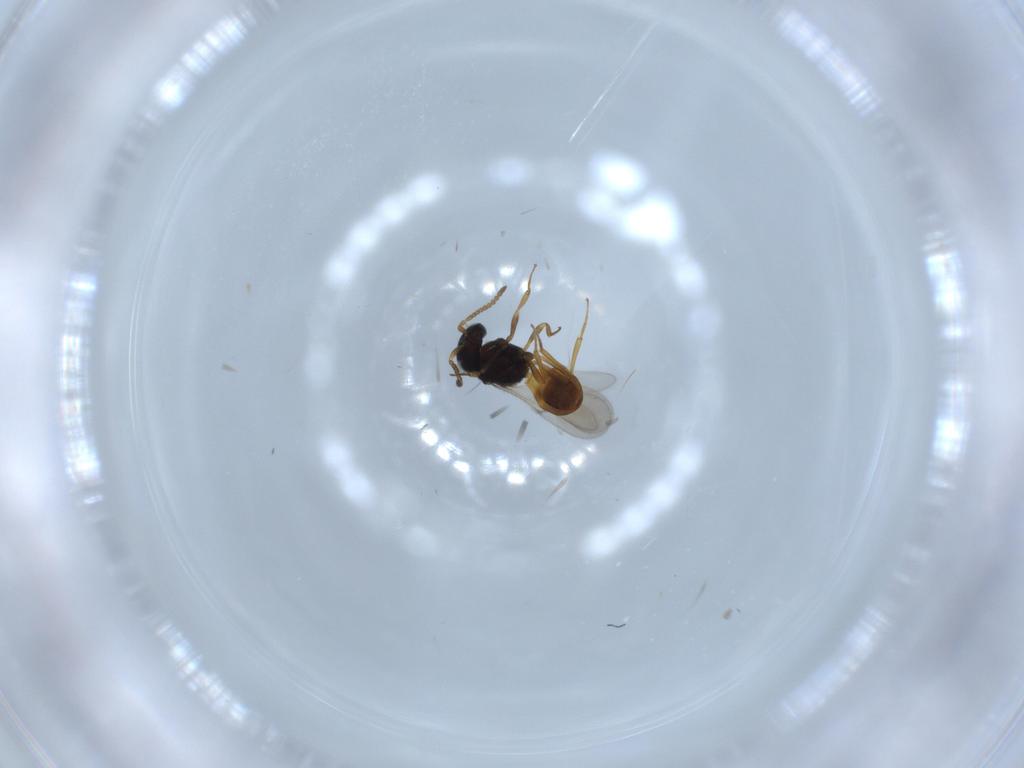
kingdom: Animalia
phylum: Arthropoda
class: Insecta
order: Hymenoptera
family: Scelionidae
